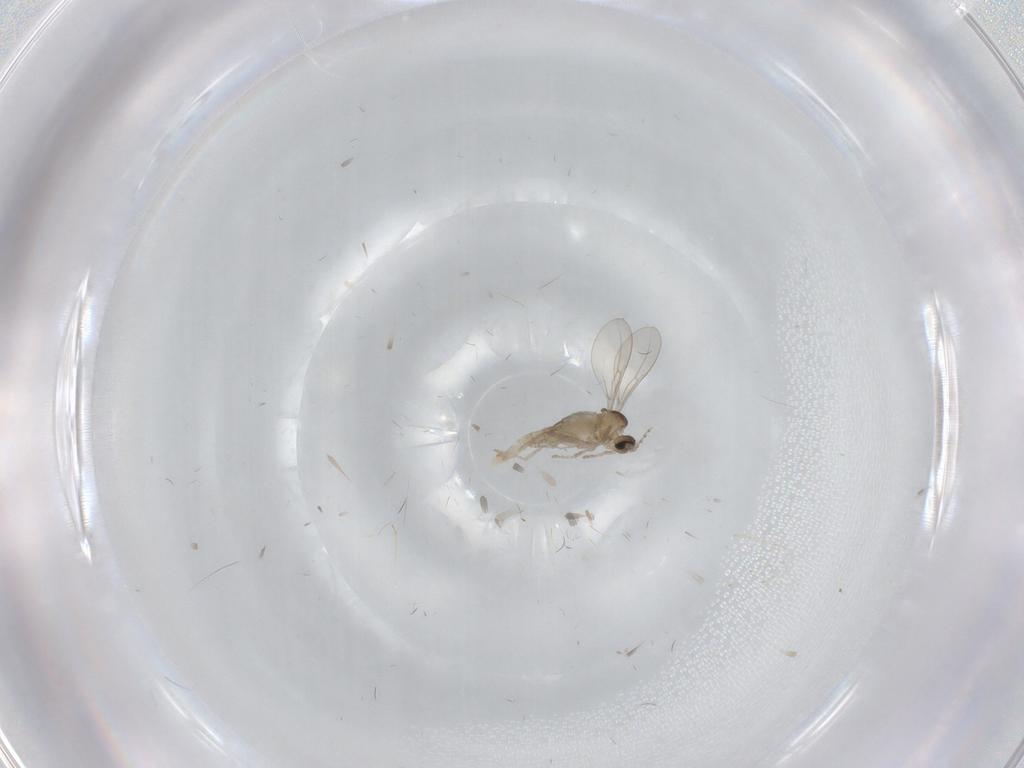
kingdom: Animalia
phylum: Arthropoda
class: Insecta
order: Diptera
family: Cecidomyiidae
